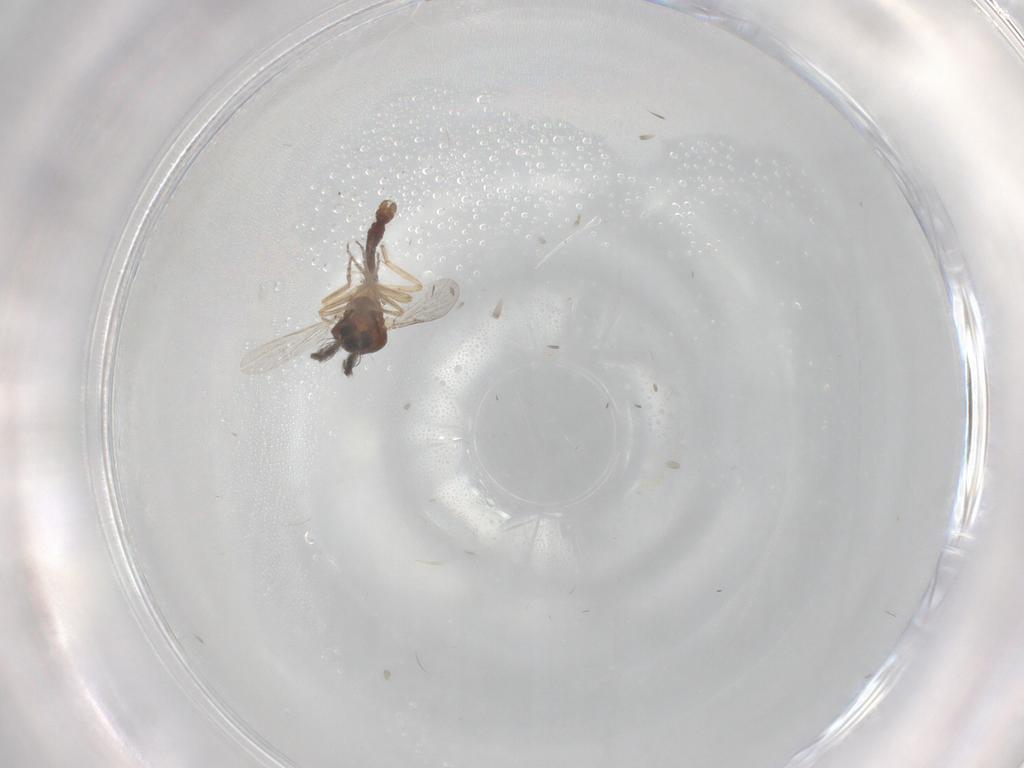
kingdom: Animalia
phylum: Arthropoda
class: Insecta
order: Diptera
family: Ceratopogonidae
